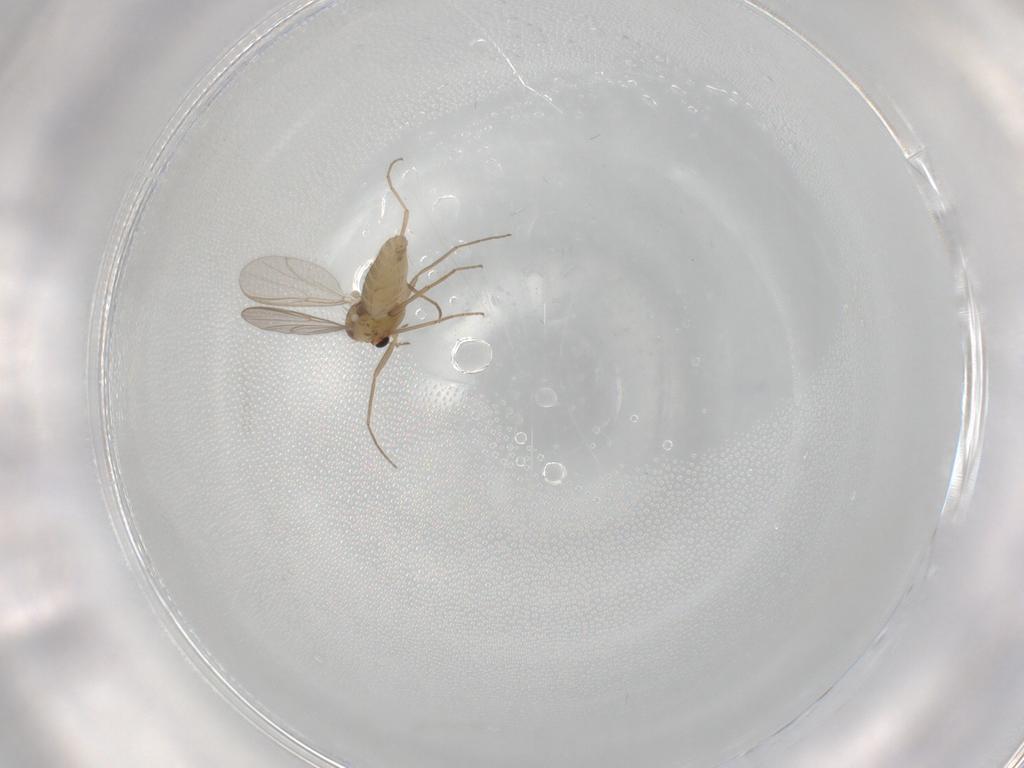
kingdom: Animalia
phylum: Arthropoda
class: Insecta
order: Diptera
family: Chironomidae
